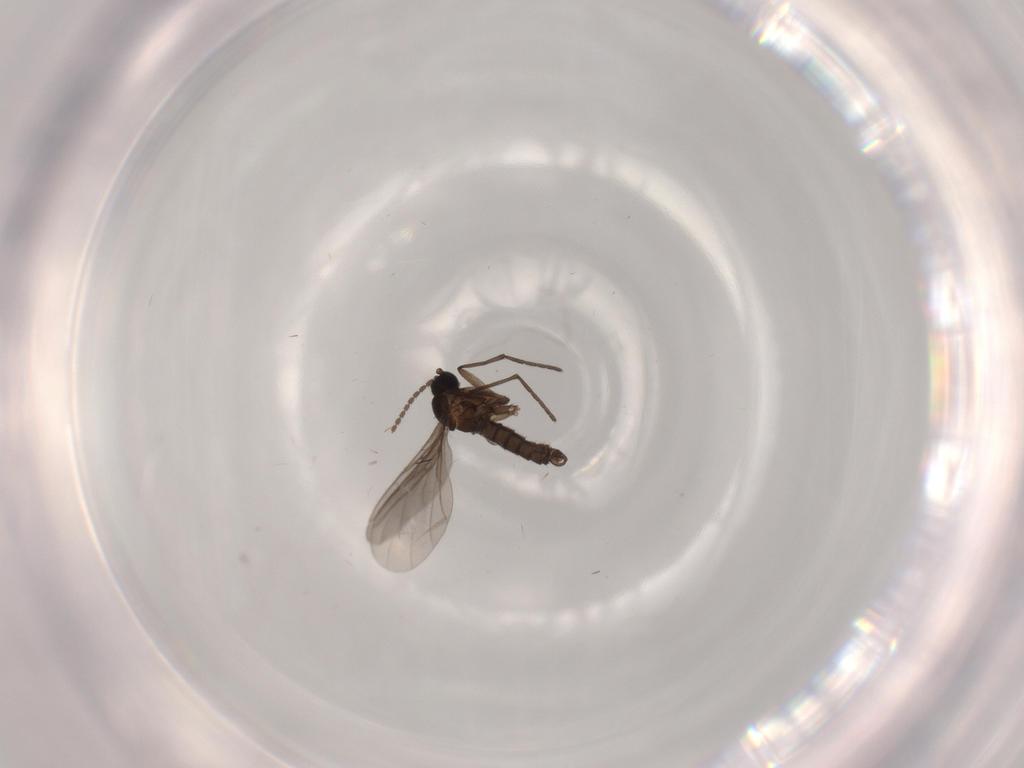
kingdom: Animalia
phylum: Arthropoda
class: Insecta
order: Diptera
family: Sciaridae
